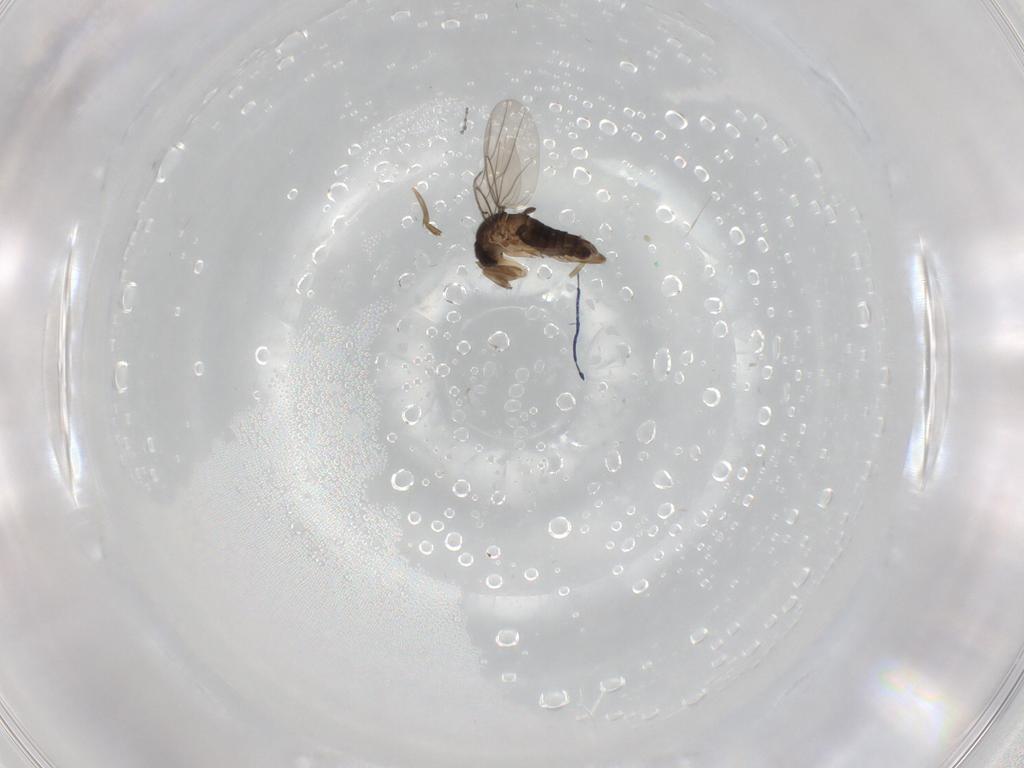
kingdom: Animalia
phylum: Arthropoda
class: Insecta
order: Diptera
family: Phoridae
